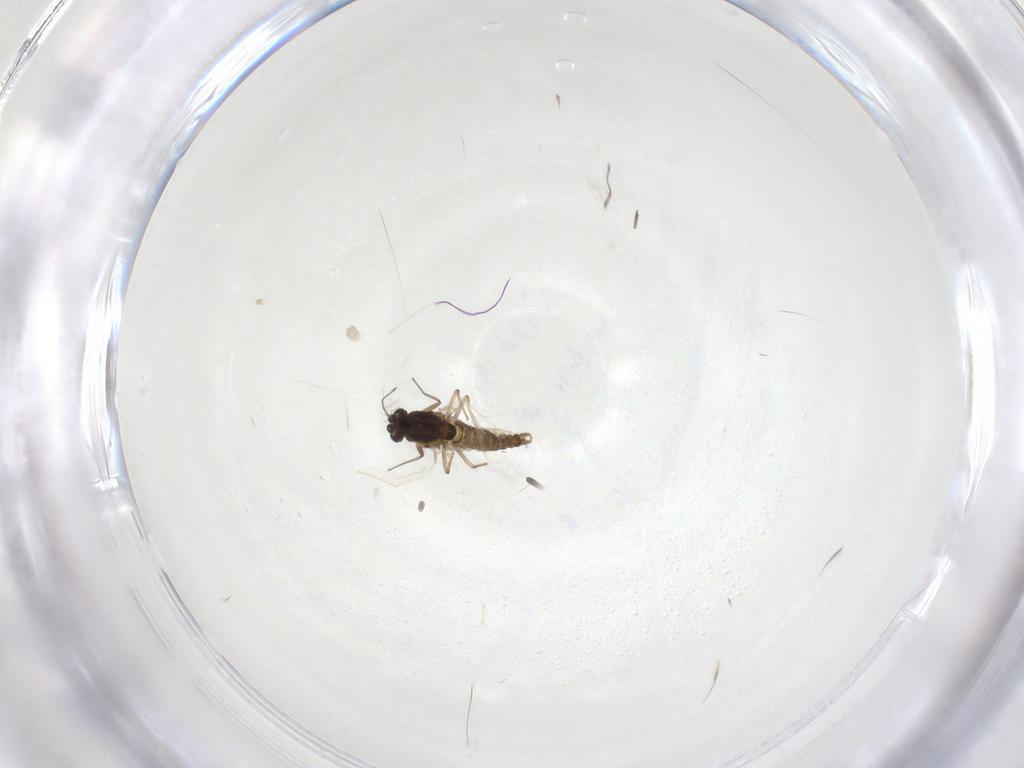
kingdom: Animalia
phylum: Arthropoda
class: Insecta
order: Diptera
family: Chironomidae
